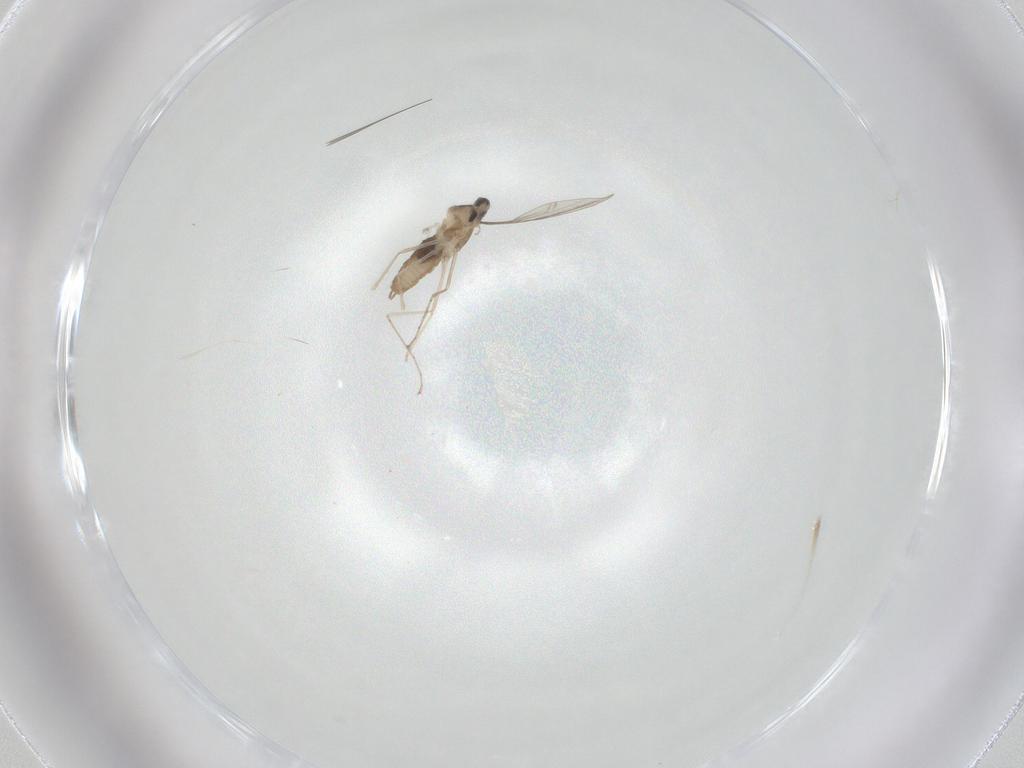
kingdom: Animalia
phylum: Arthropoda
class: Insecta
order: Diptera
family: Cecidomyiidae
